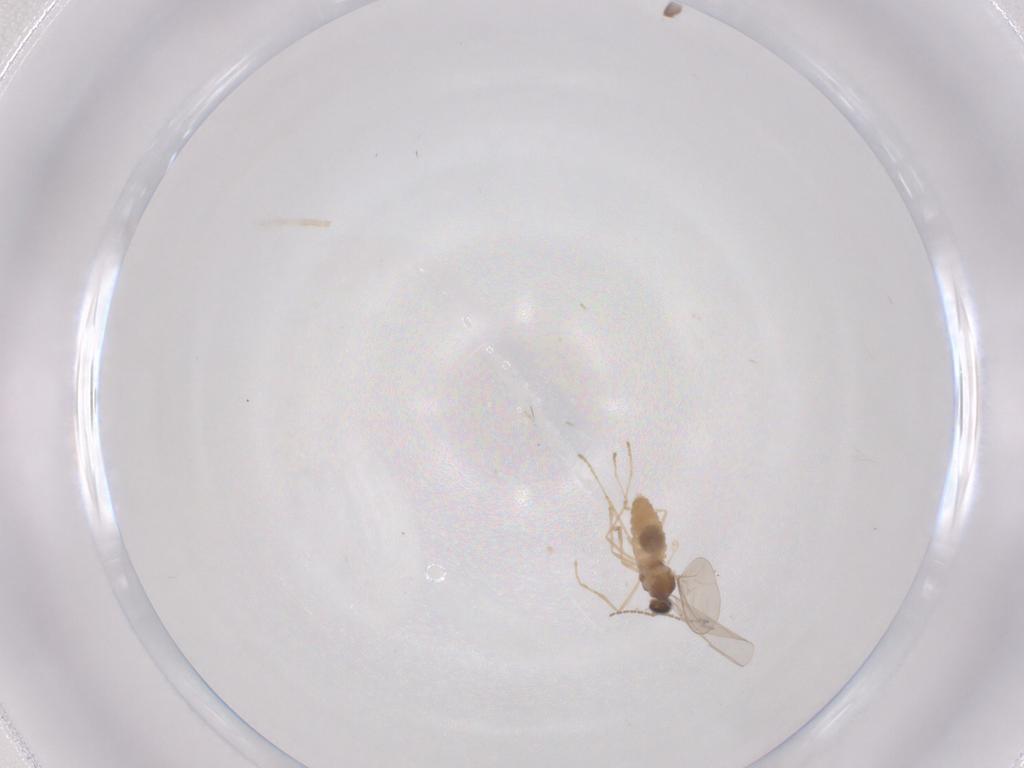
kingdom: Animalia
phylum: Arthropoda
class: Insecta
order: Diptera
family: Cecidomyiidae
